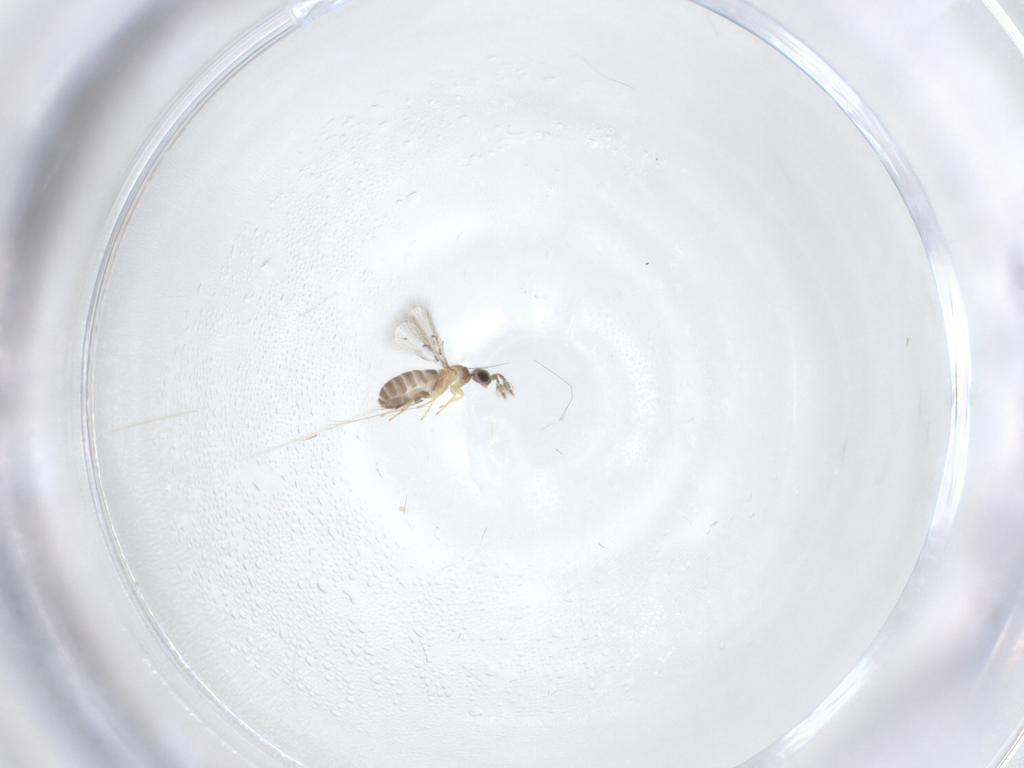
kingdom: Animalia
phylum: Arthropoda
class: Insecta
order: Hymenoptera
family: Trichogrammatidae
